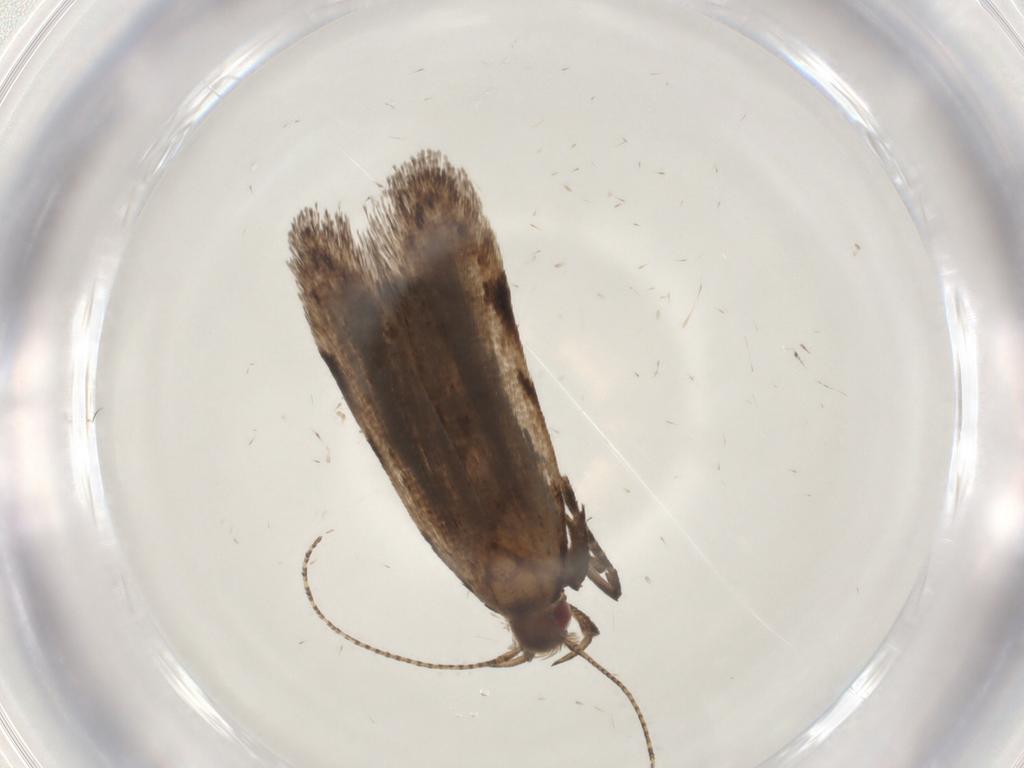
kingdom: Animalia
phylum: Arthropoda
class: Insecta
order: Lepidoptera
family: Gelechiidae
